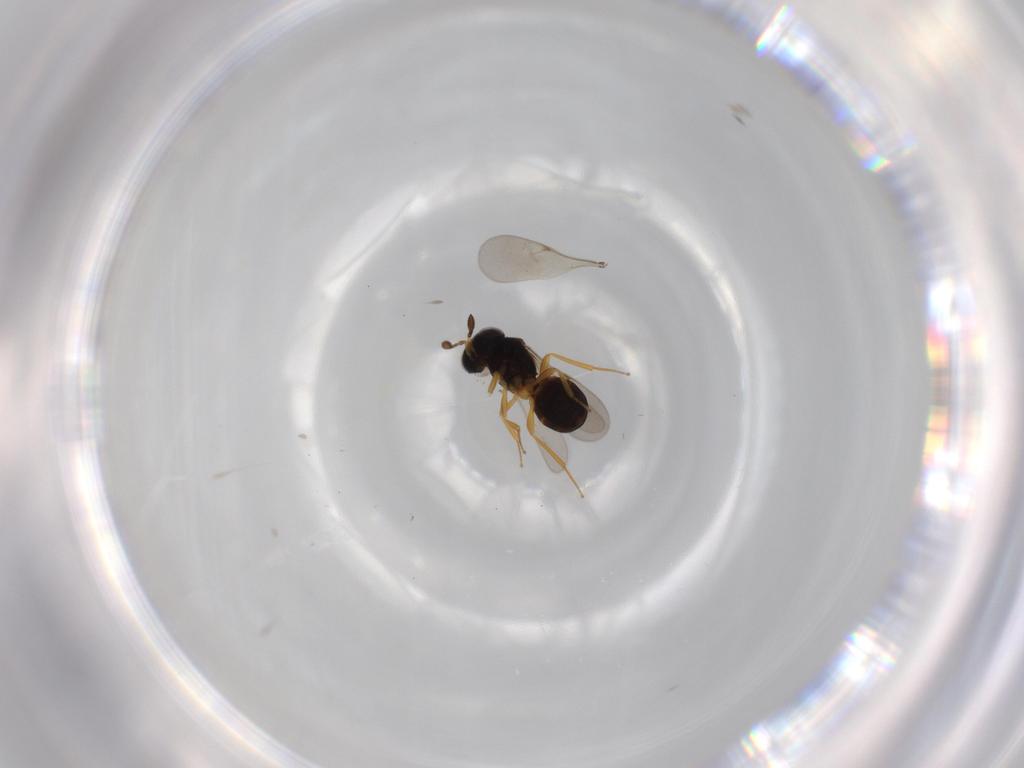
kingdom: Animalia
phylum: Arthropoda
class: Insecta
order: Hymenoptera
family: Scelionidae
